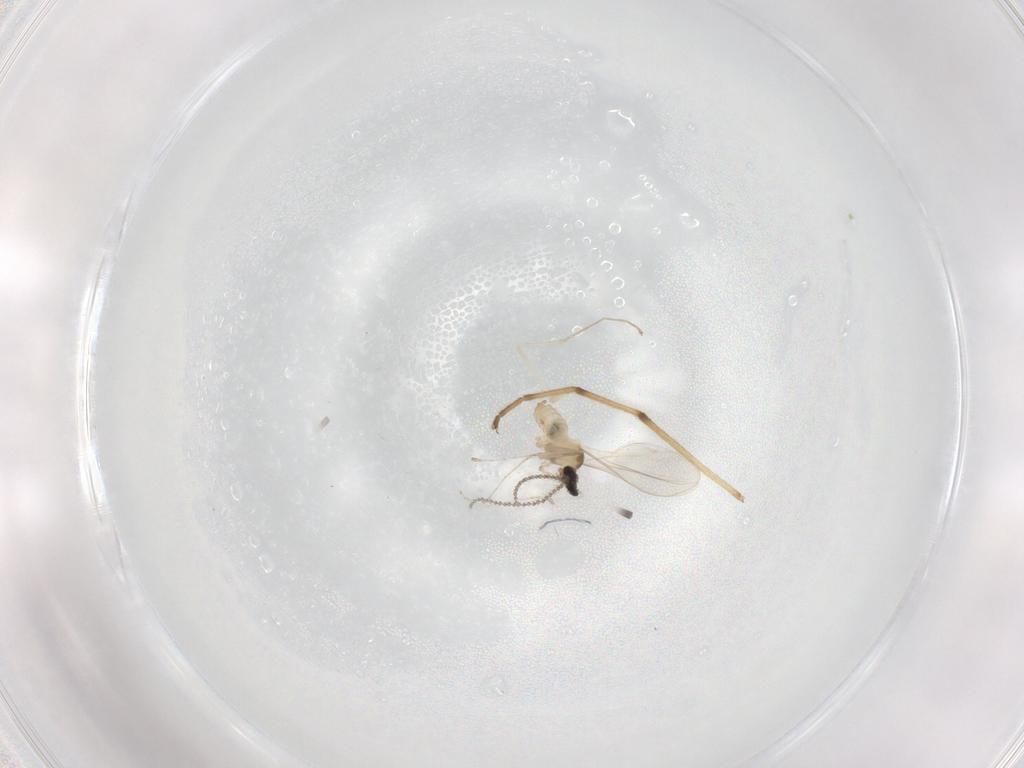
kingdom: Animalia
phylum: Arthropoda
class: Insecta
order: Diptera
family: Chironomidae
